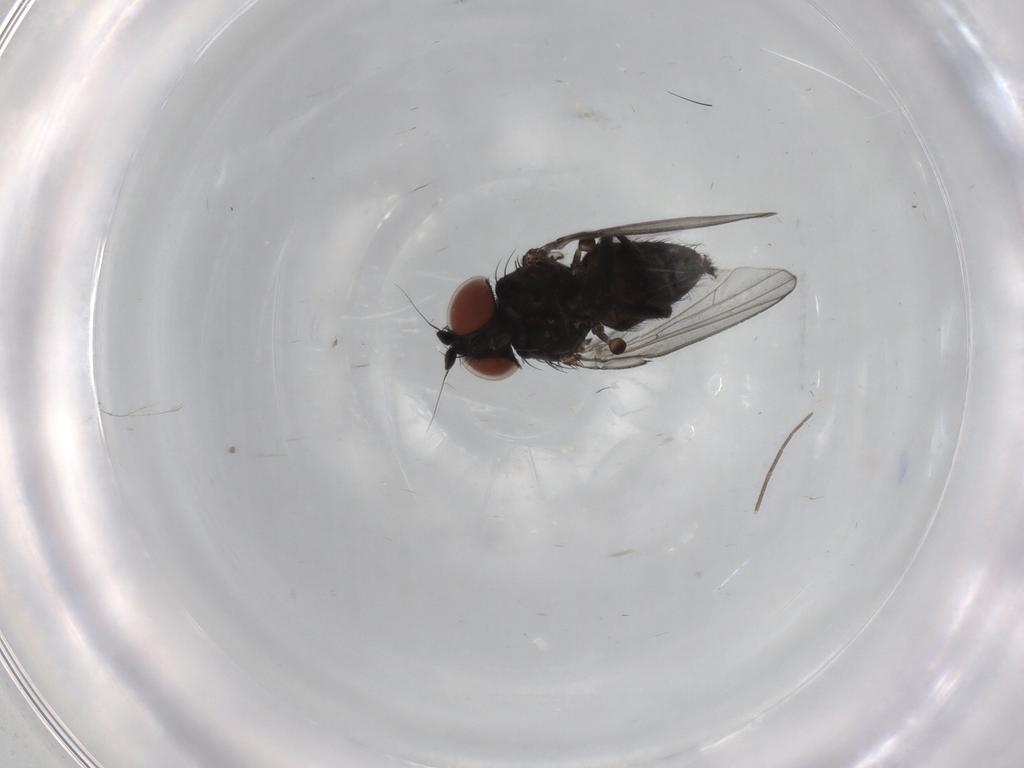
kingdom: Animalia
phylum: Arthropoda
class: Insecta
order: Diptera
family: Milichiidae
